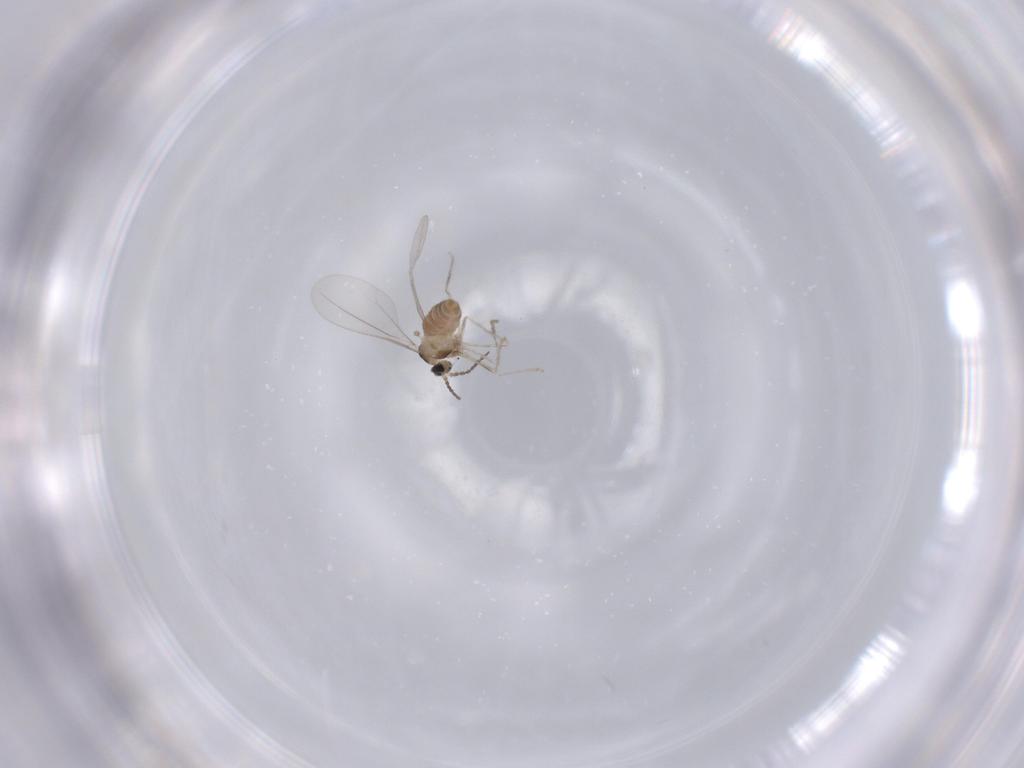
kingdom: Animalia
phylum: Arthropoda
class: Insecta
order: Diptera
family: Cecidomyiidae
